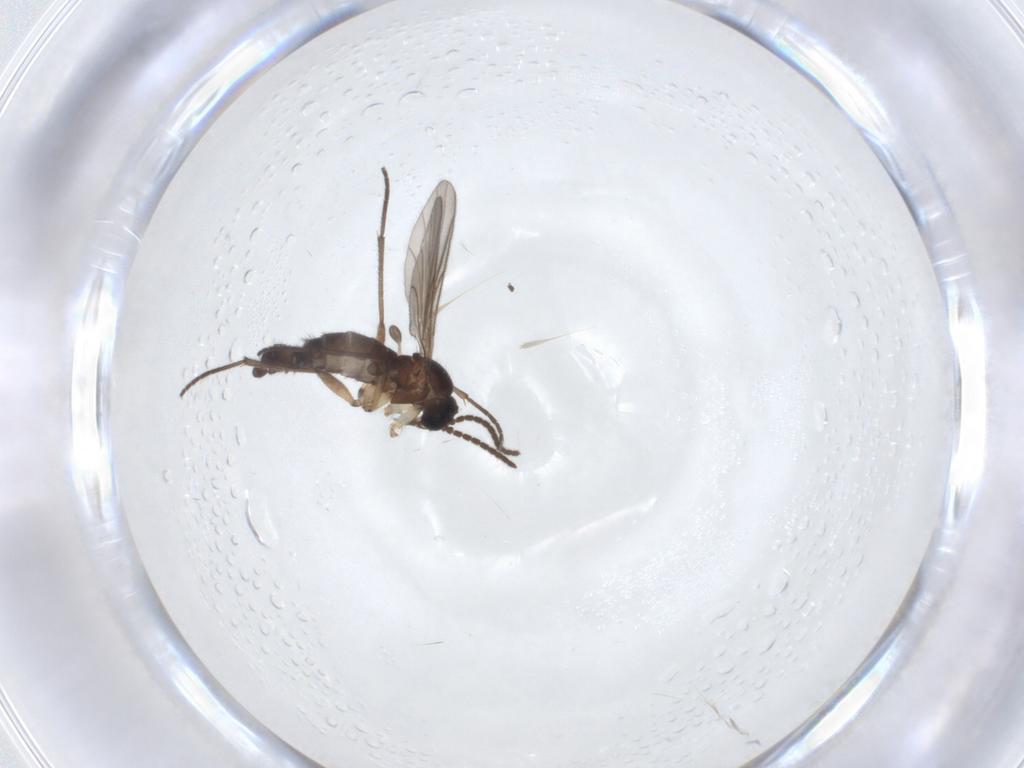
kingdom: Animalia
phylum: Arthropoda
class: Insecta
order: Diptera
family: Sciaridae
